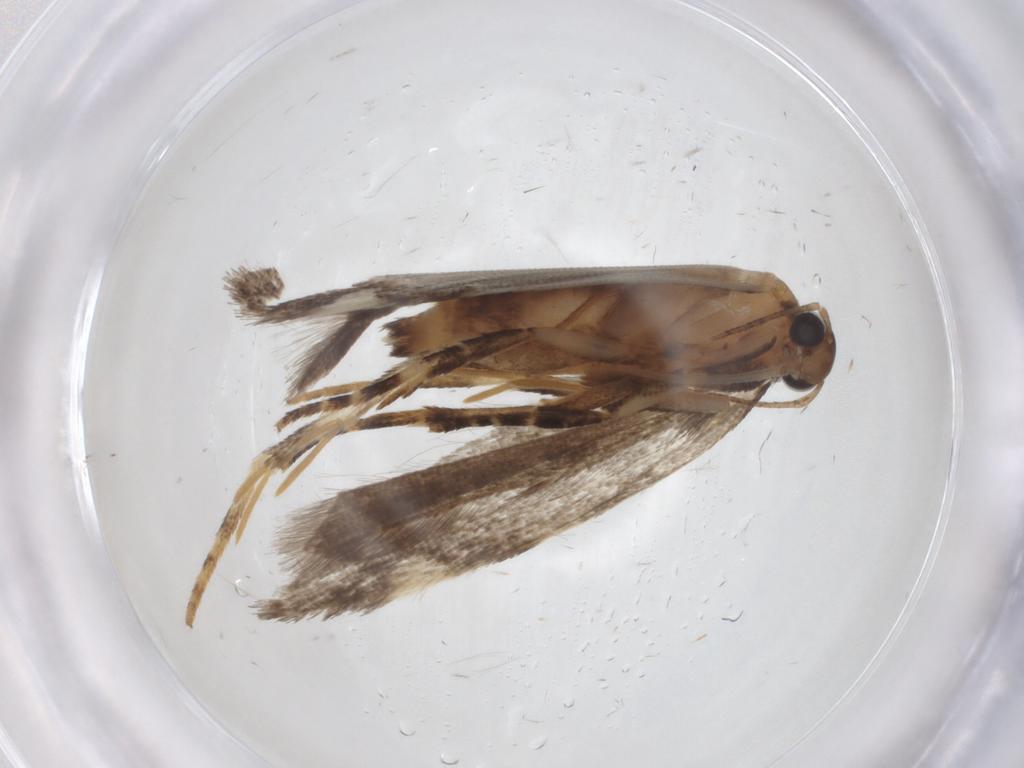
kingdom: Animalia
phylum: Arthropoda
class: Insecta
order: Lepidoptera
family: Gelechiidae
